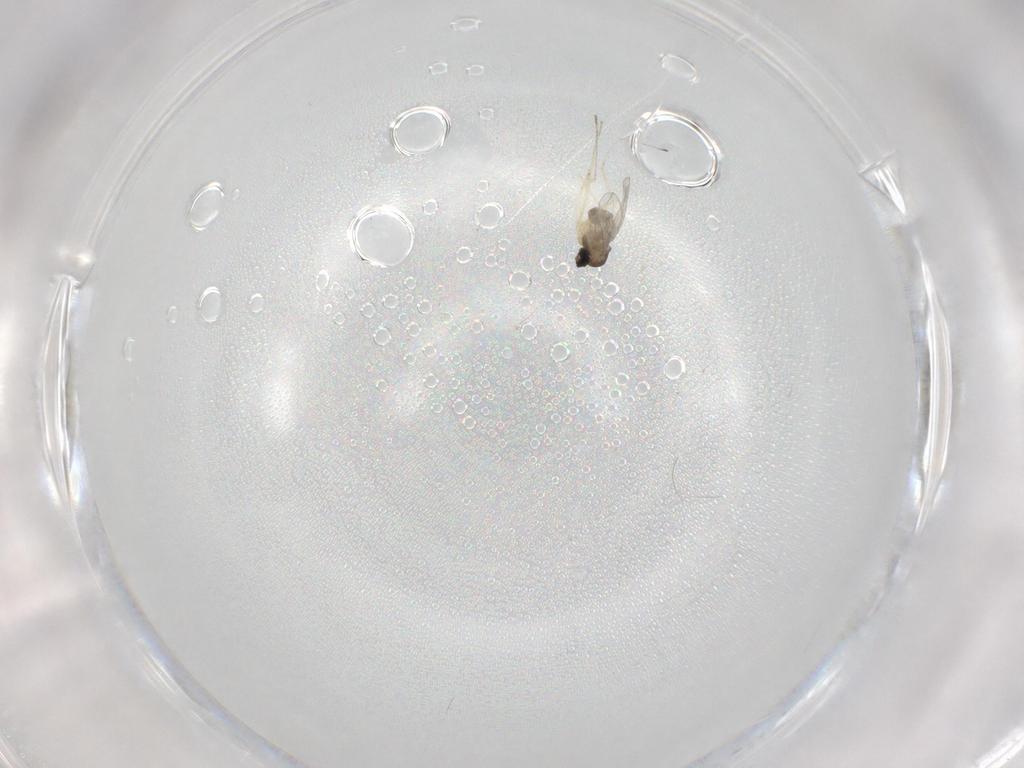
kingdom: Animalia
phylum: Arthropoda
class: Insecta
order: Diptera
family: Cecidomyiidae
